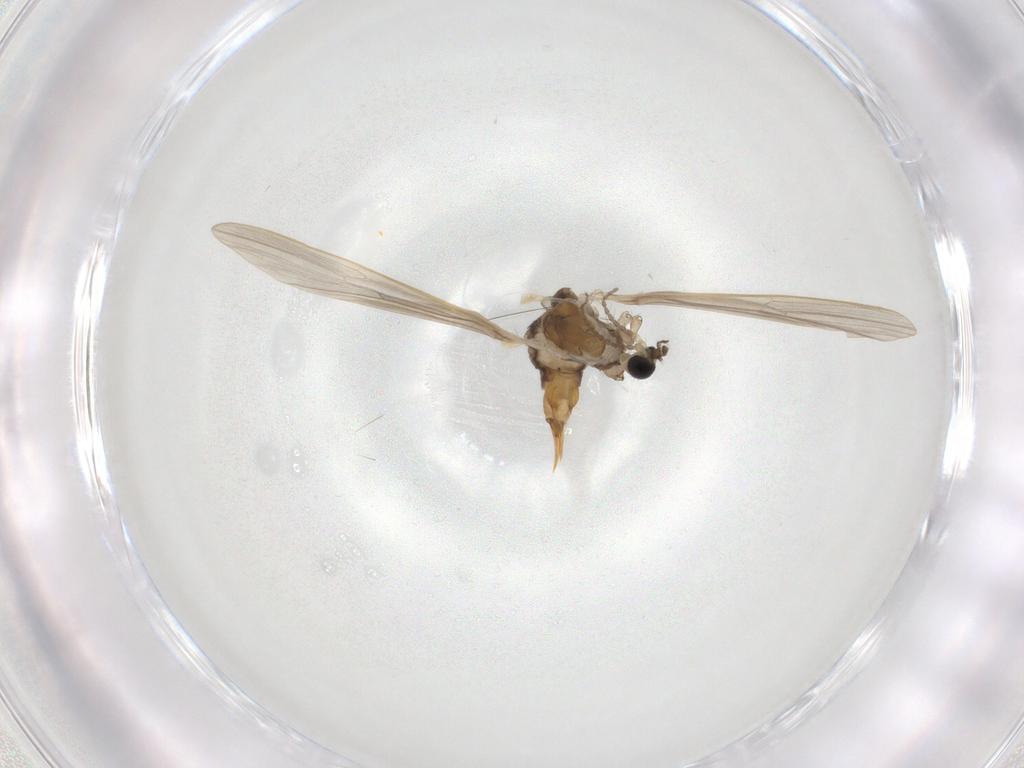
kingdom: Animalia
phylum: Arthropoda
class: Insecta
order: Diptera
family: Limoniidae
